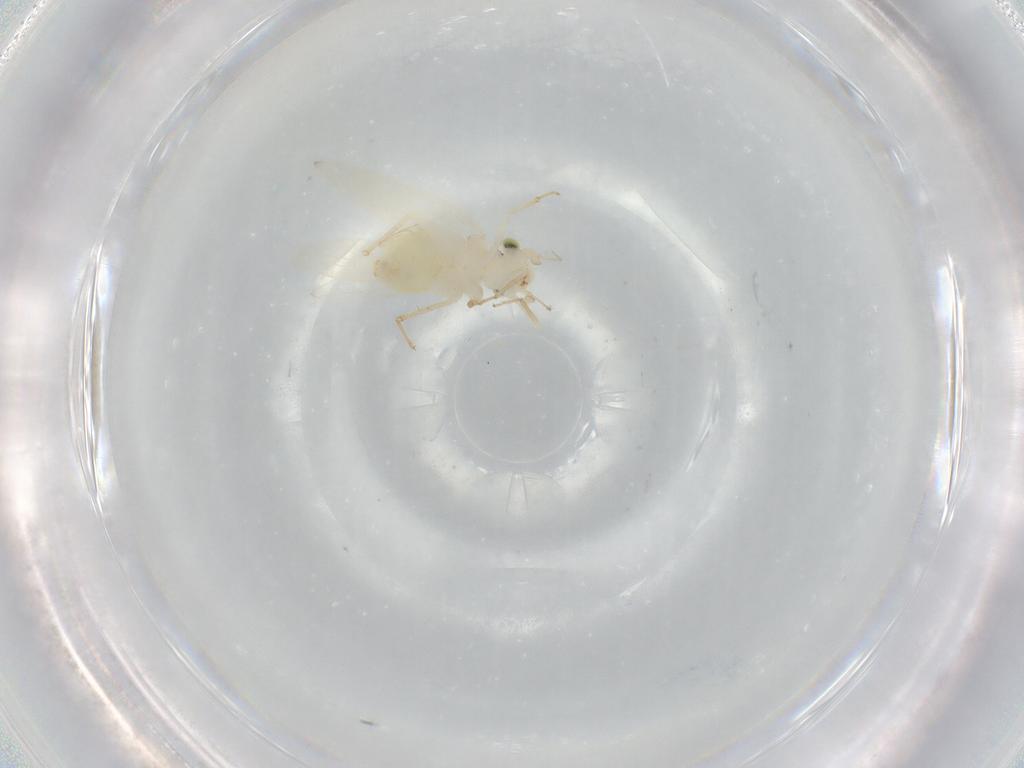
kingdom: Animalia
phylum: Arthropoda
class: Insecta
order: Psocodea
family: Lepidopsocidae
